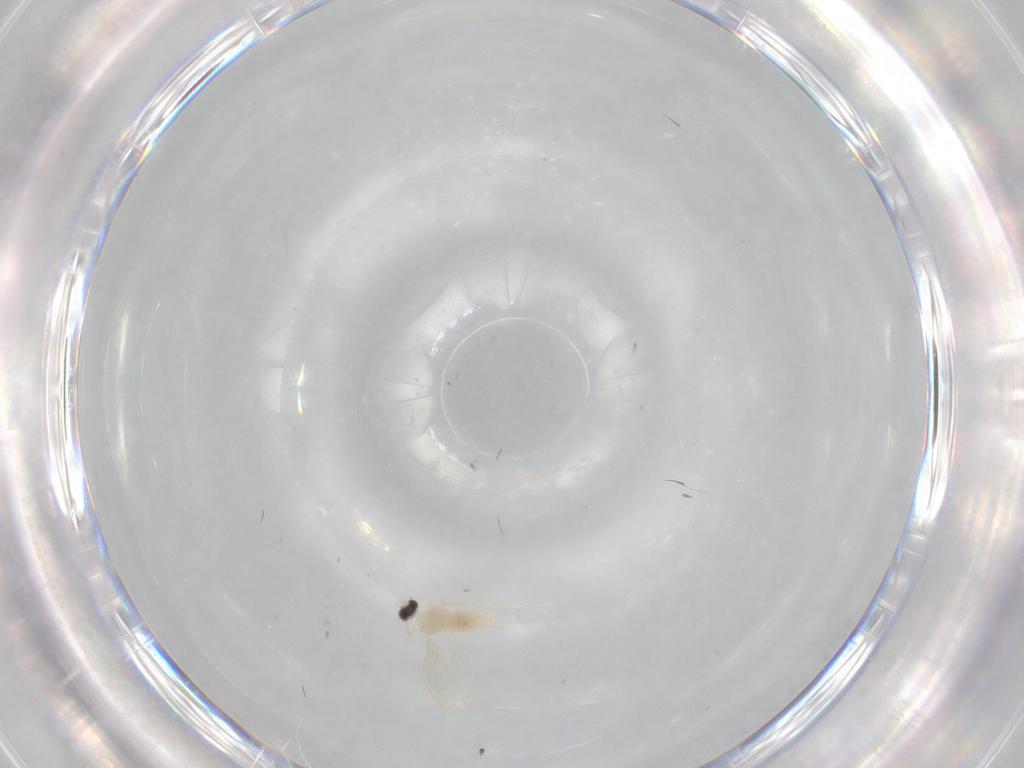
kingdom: Animalia
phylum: Arthropoda
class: Insecta
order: Diptera
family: Cecidomyiidae
